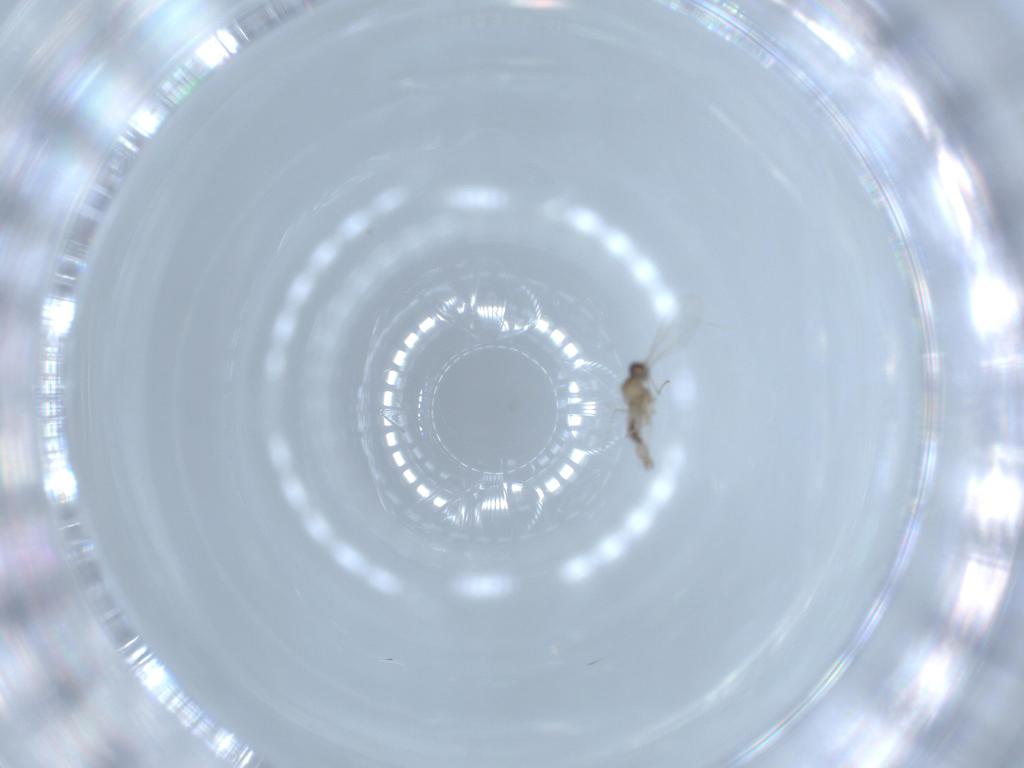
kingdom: Animalia
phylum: Arthropoda
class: Insecta
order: Diptera
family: Sciaridae
